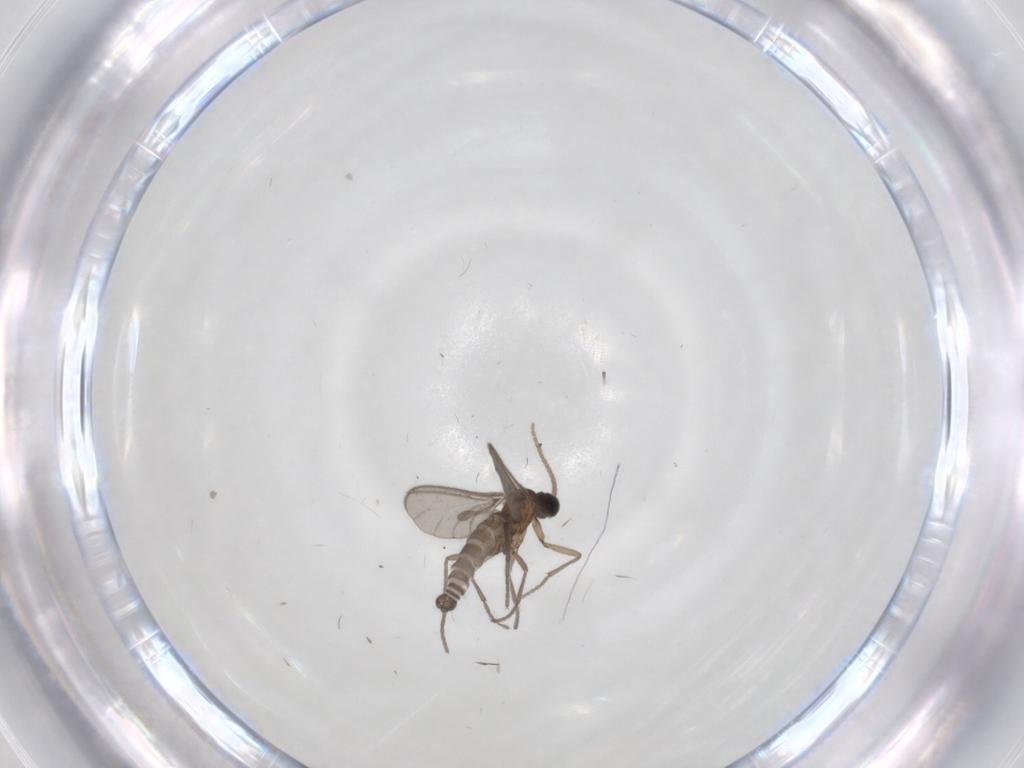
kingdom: Animalia
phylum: Arthropoda
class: Insecta
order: Diptera
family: Sciaridae
